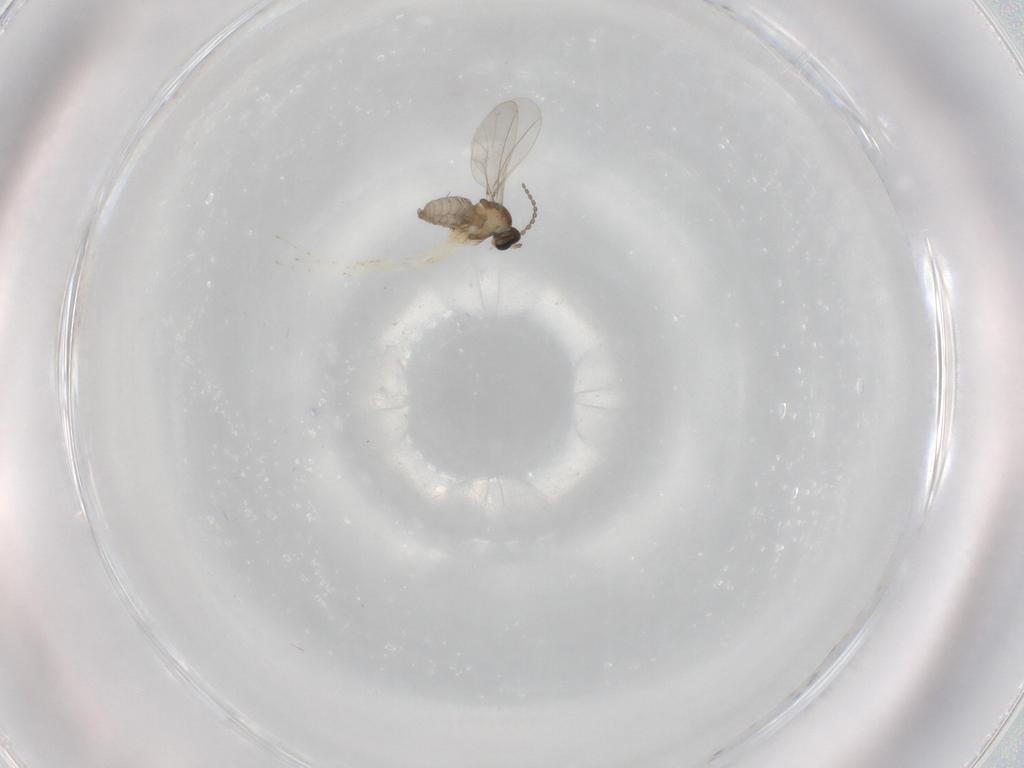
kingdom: Animalia
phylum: Arthropoda
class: Insecta
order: Diptera
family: Cecidomyiidae
